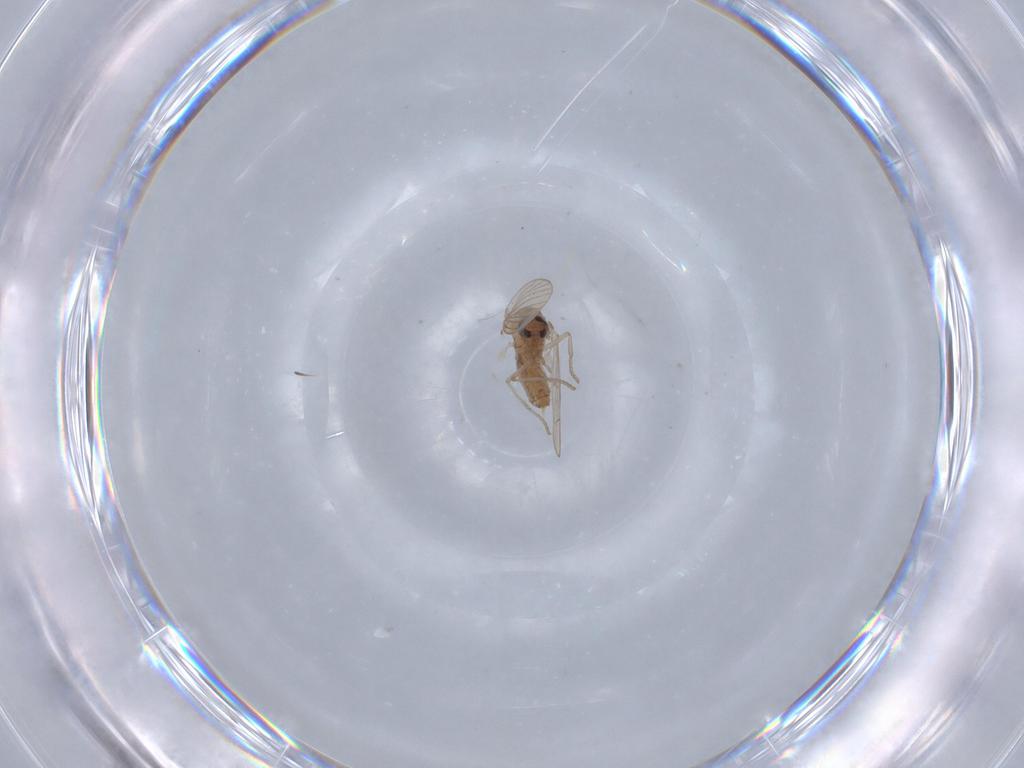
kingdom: Animalia
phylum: Arthropoda
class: Insecta
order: Diptera
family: Psychodidae
